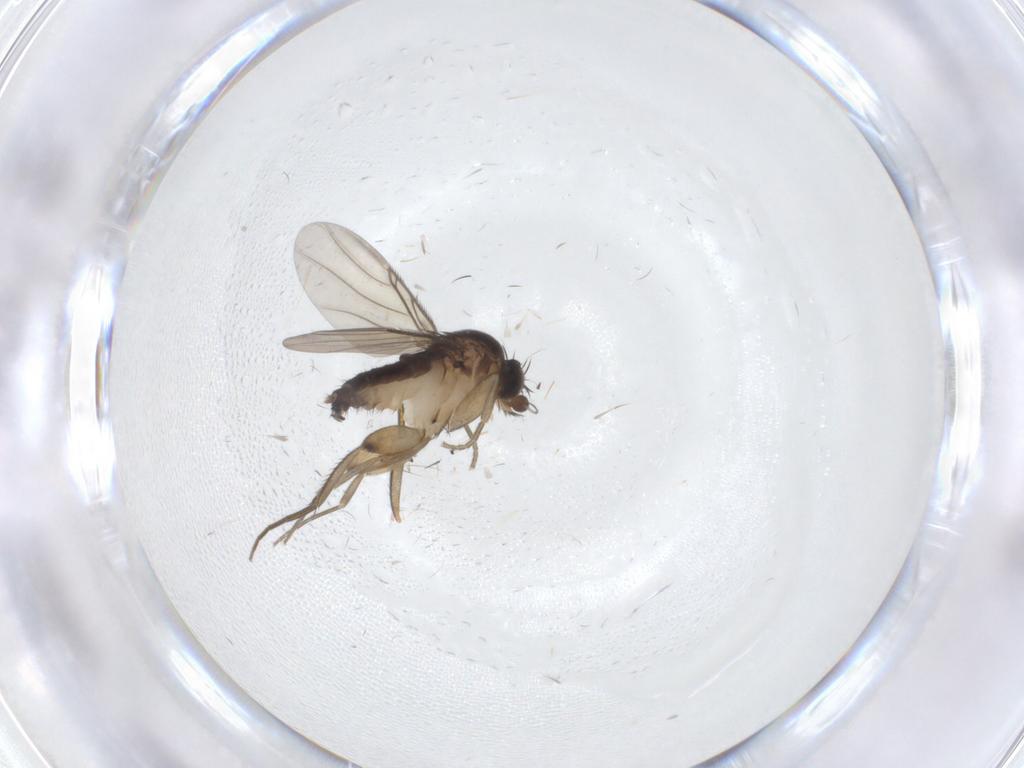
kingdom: Animalia
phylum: Arthropoda
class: Insecta
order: Diptera
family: Phoridae
